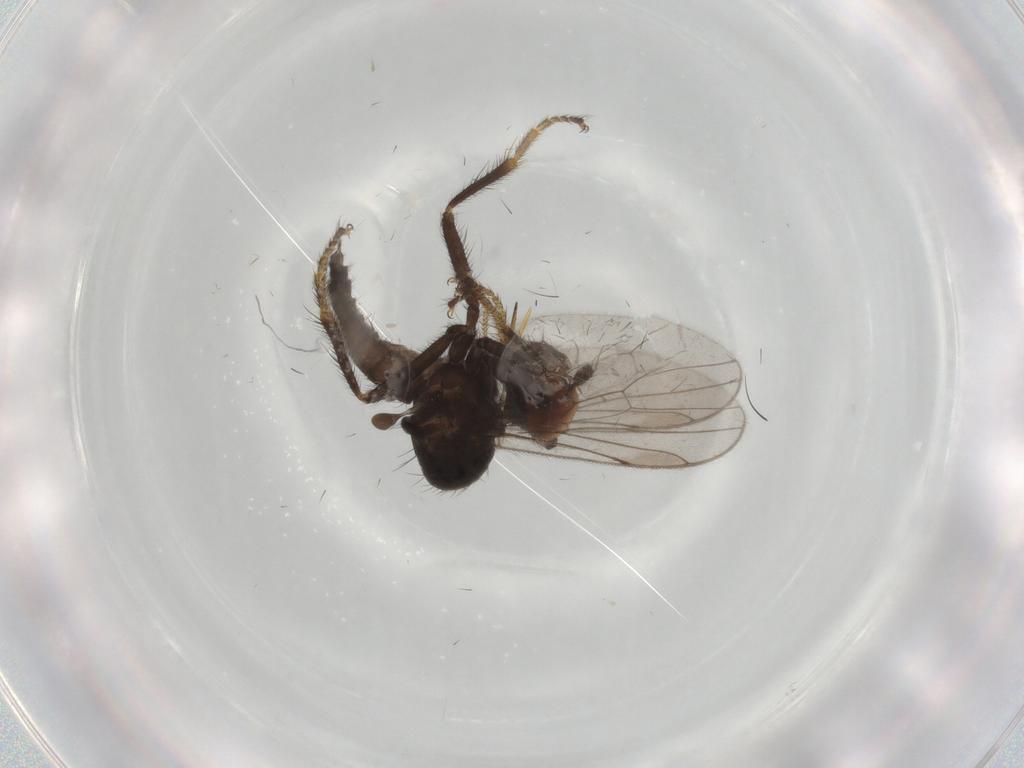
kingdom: Animalia
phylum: Arthropoda
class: Insecta
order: Diptera
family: Hybotidae
